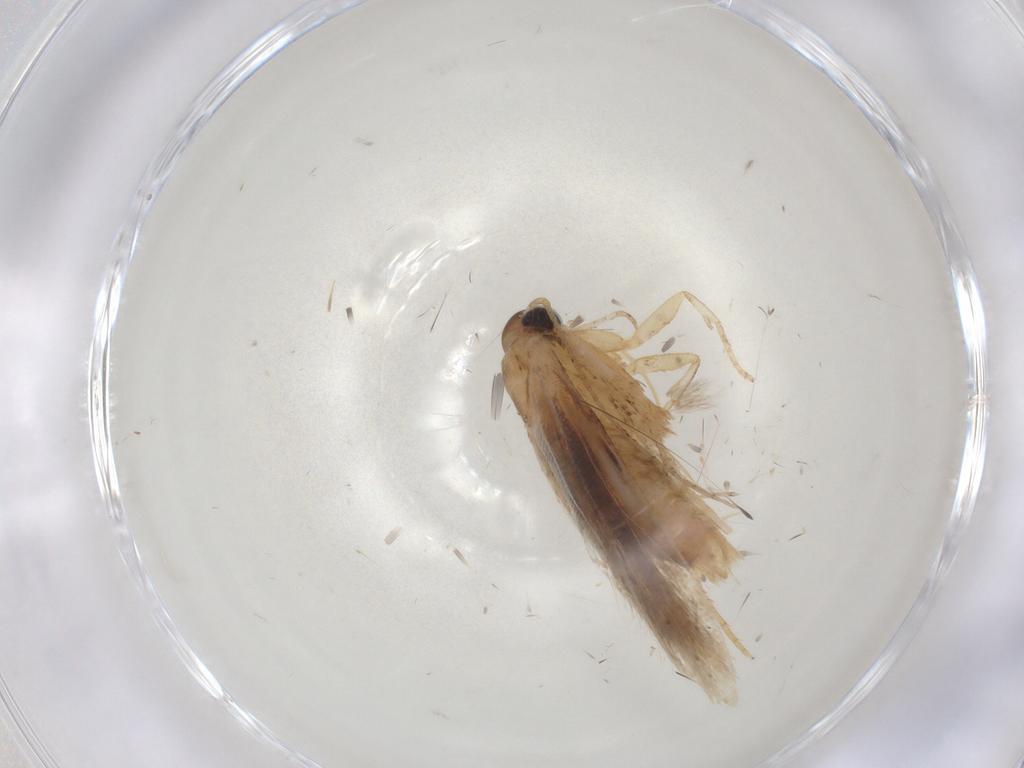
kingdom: Animalia
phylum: Arthropoda
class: Insecta
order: Lepidoptera
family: Gelechiidae
